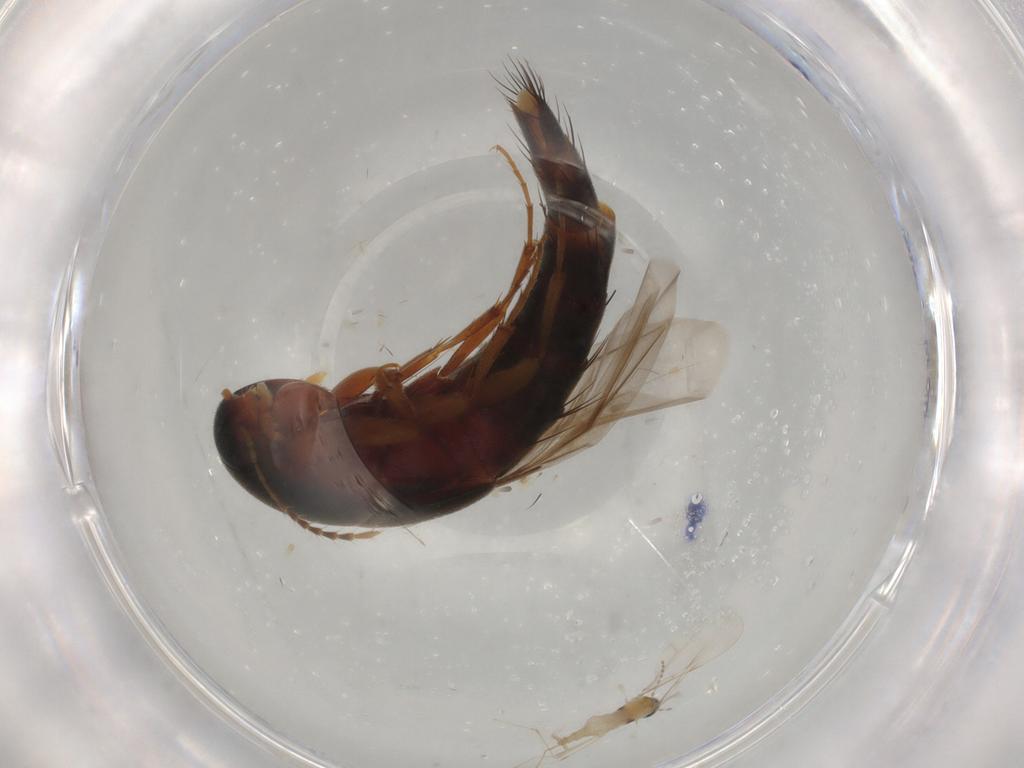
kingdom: Animalia
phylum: Arthropoda
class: Insecta
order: Coleoptera
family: Staphylinidae
